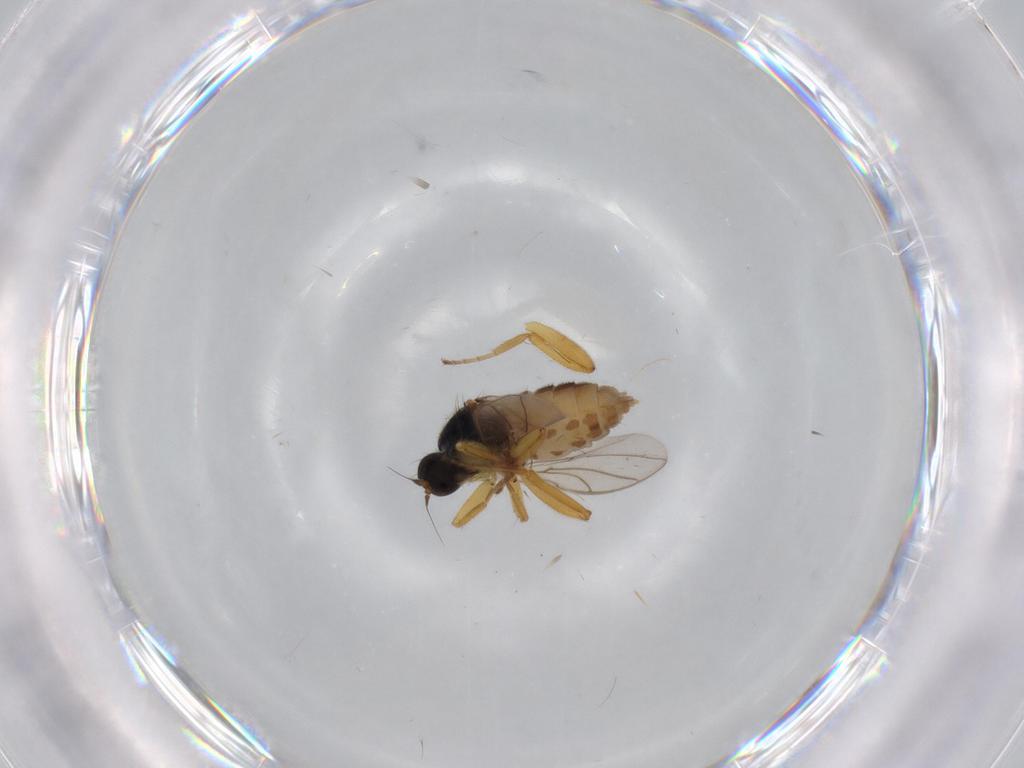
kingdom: Animalia
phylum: Arthropoda
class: Insecta
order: Diptera
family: Hybotidae
